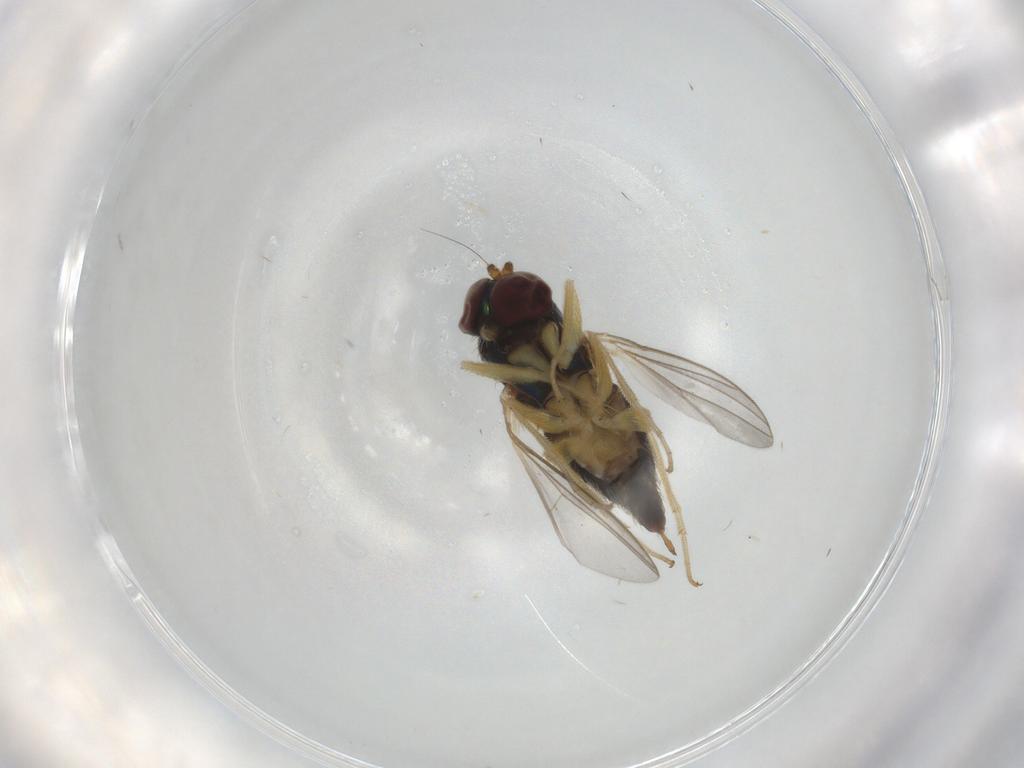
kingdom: Animalia
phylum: Arthropoda
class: Insecta
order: Diptera
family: Dolichopodidae
